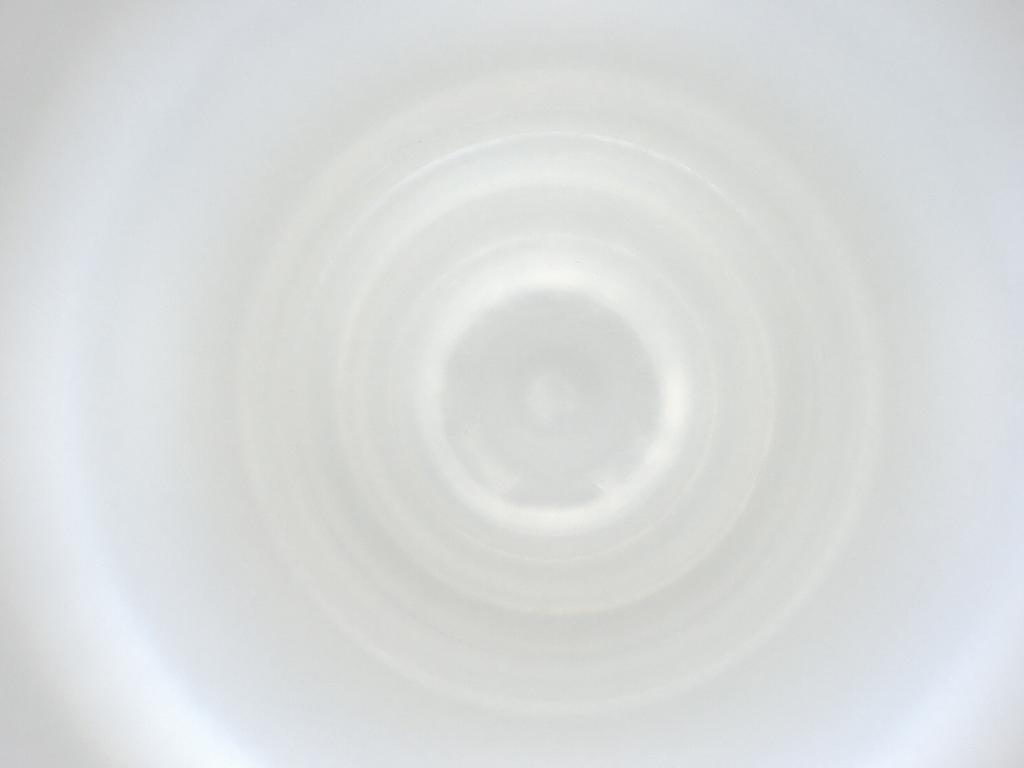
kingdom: Animalia
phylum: Arthropoda
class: Insecta
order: Diptera
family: Cecidomyiidae
